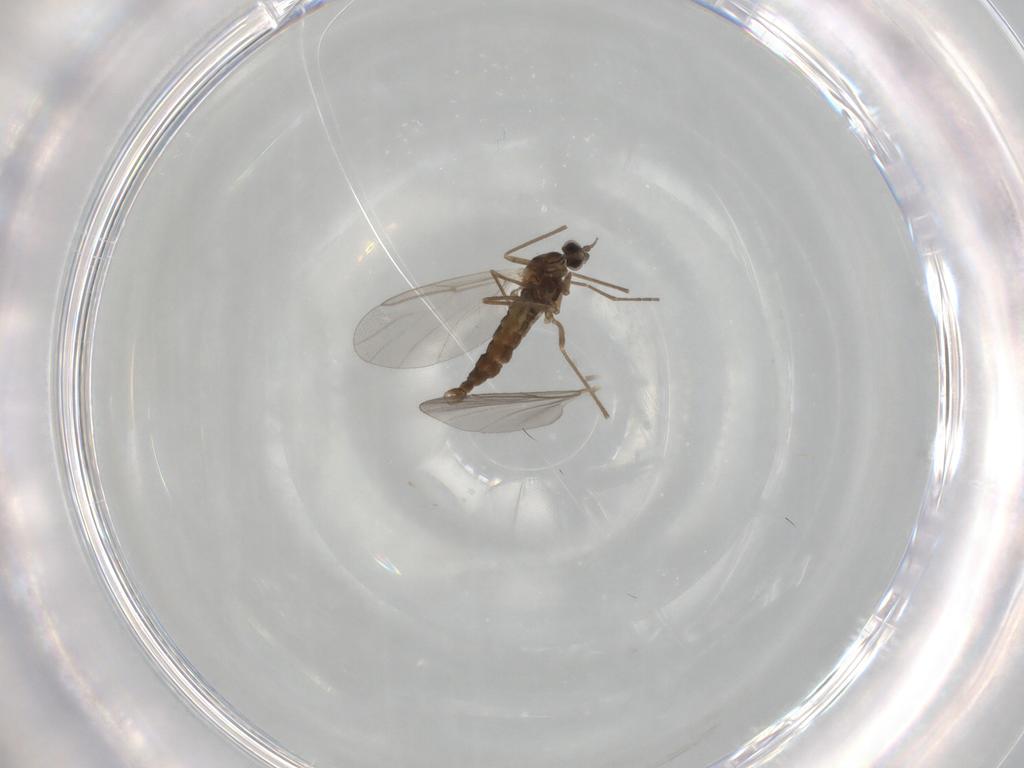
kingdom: Animalia
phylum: Arthropoda
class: Insecta
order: Diptera
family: Cecidomyiidae
